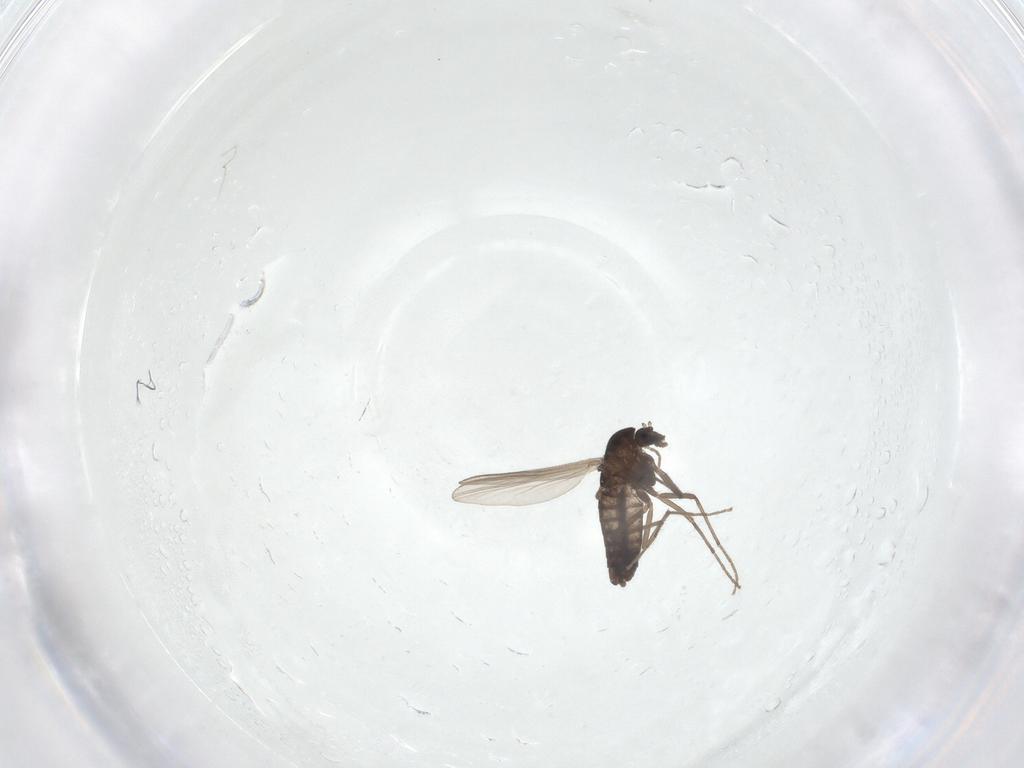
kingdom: Animalia
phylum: Arthropoda
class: Insecta
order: Diptera
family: Chironomidae
